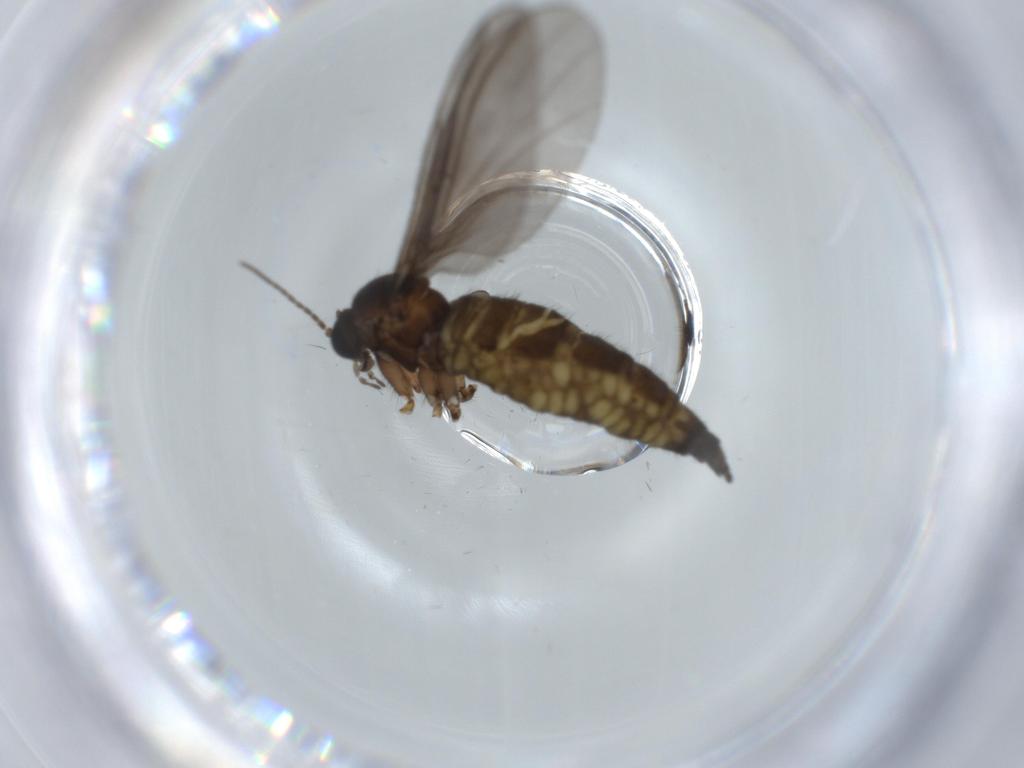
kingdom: Animalia
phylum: Arthropoda
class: Insecta
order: Diptera
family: Sciaridae
